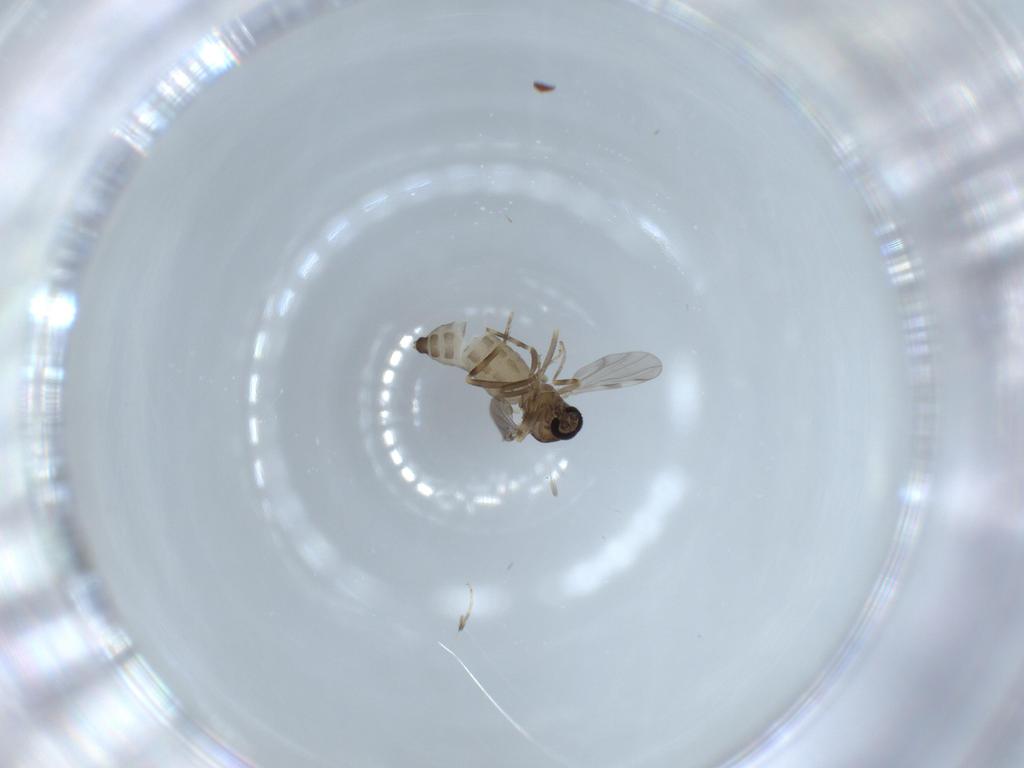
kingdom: Animalia
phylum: Arthropoda
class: Insecta
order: Diptera
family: Ceratopogonidae
